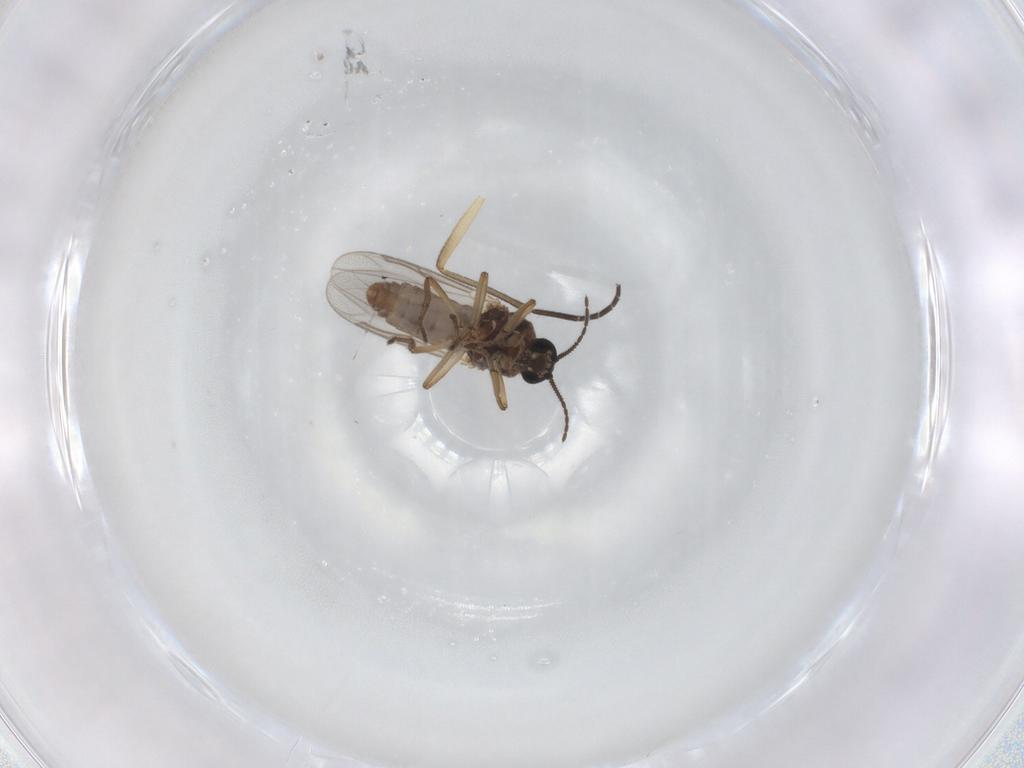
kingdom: Animalia
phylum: Arthropoda
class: Insecta
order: Diptera
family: Ceratopogonidae
